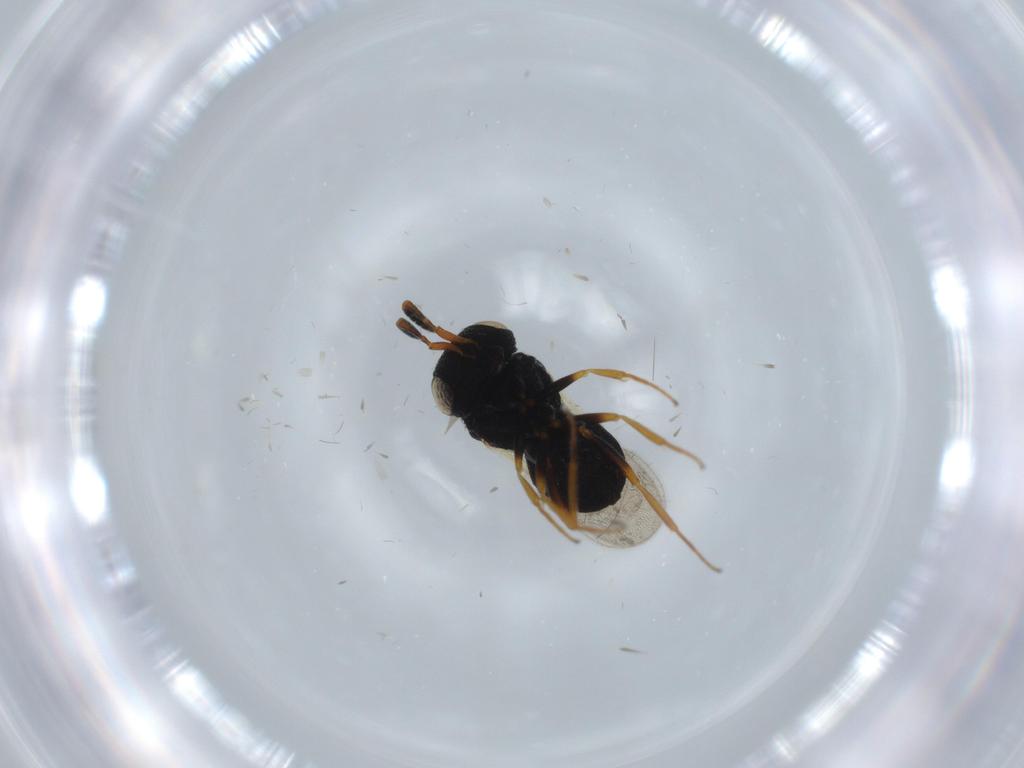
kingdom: Animalia
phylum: Arthropoda
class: Insecta
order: Hymenoptera
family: Scelionidae
